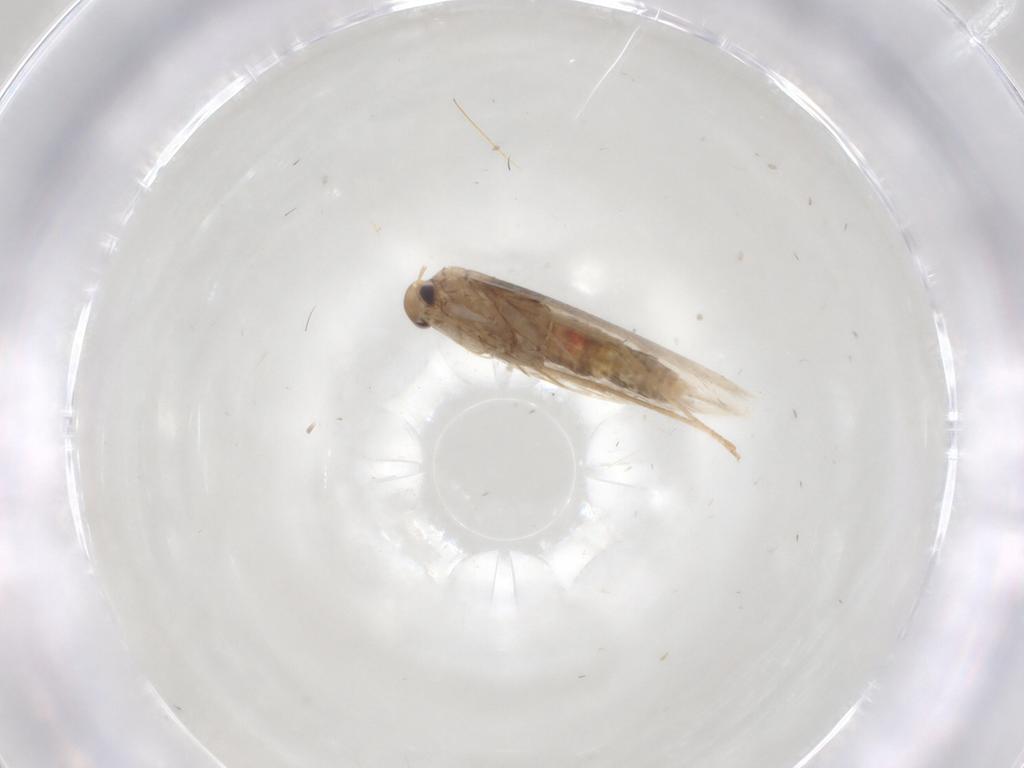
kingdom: Animalia
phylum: Arthropoda
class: Insecta
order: Lepidoptera
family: Gracillariidae
